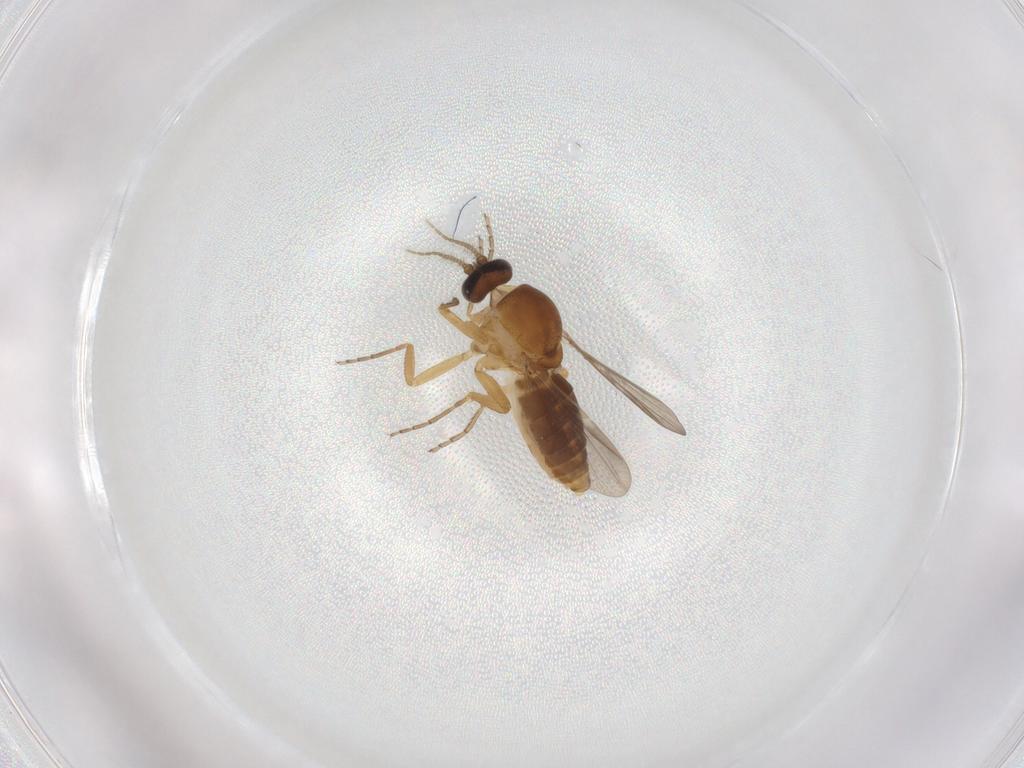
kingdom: Animalia
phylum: Arthropoda
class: Insecta
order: Diptera
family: Ceratopogonidae
